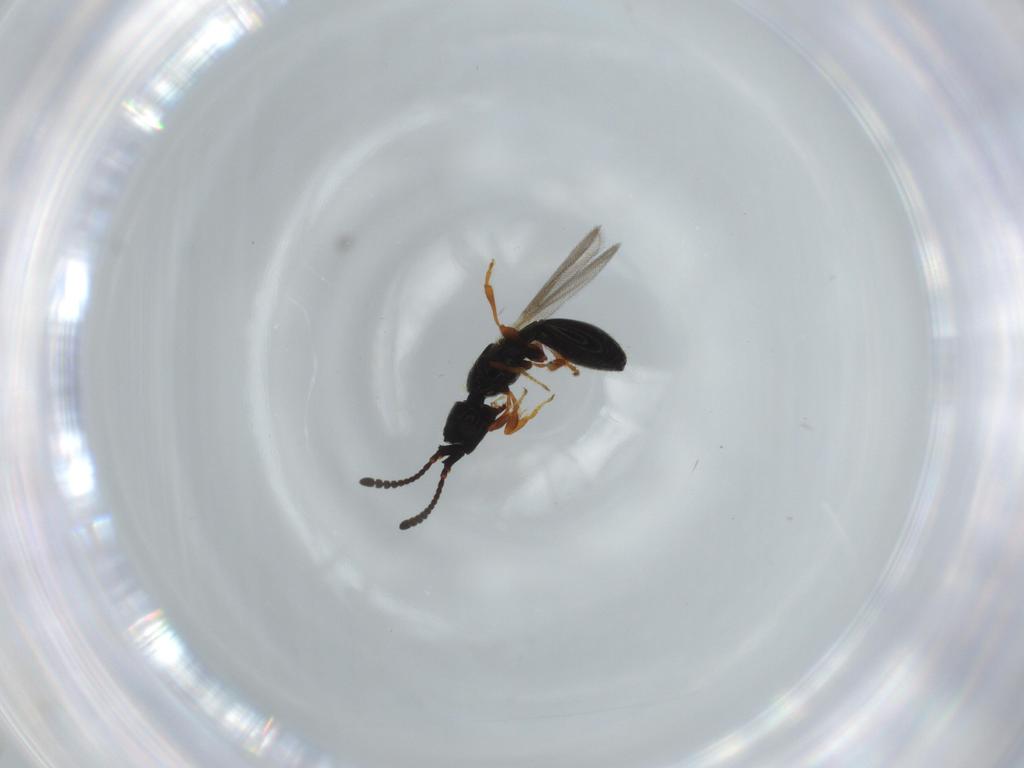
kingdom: Animalia
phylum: Arthropoda
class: Insecta
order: Hymenoptera
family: Diapriidae
